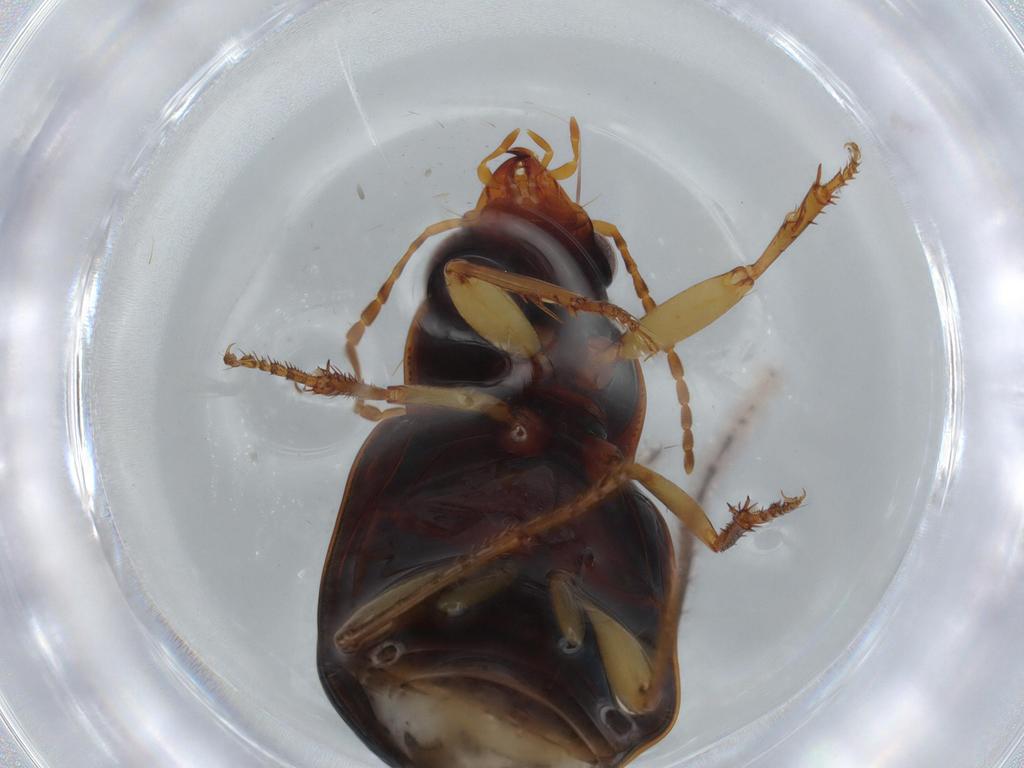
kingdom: Animalia
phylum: Arthropoda
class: Insecta
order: Coleoptera
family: Carabidae
